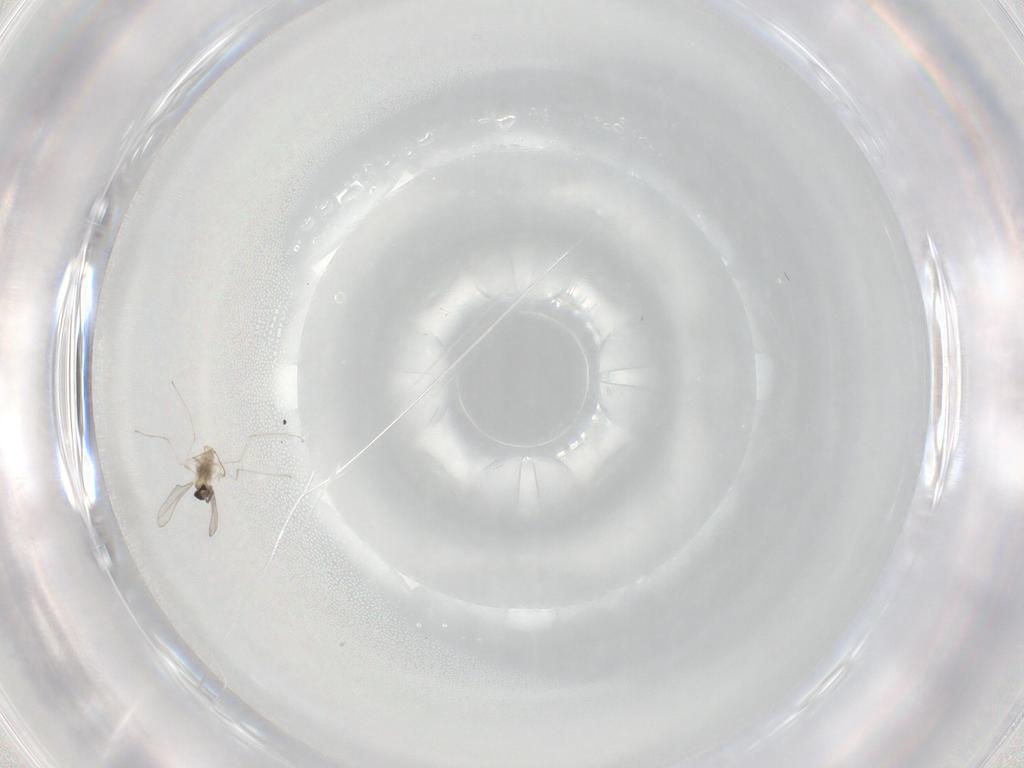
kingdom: Animalia
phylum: Arthropoda
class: Insecta
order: Diptera
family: Cecidomyiidae
